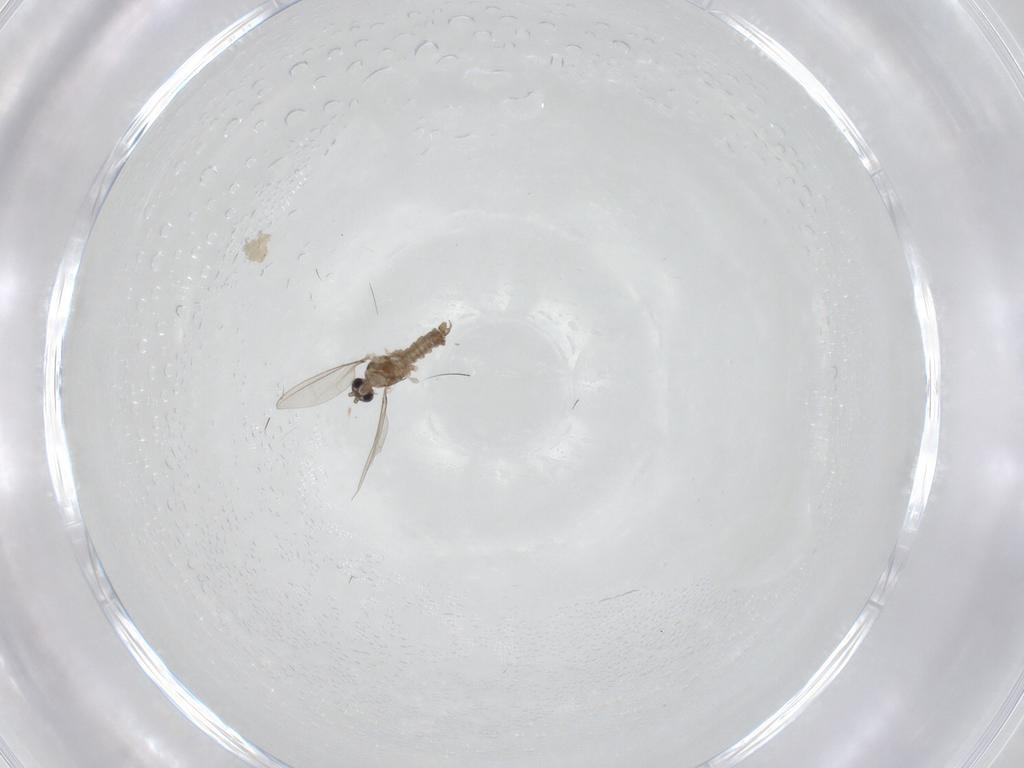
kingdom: Animalia
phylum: Arthropoda
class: Insecta
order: Diptera
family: Cecidomyiidae
